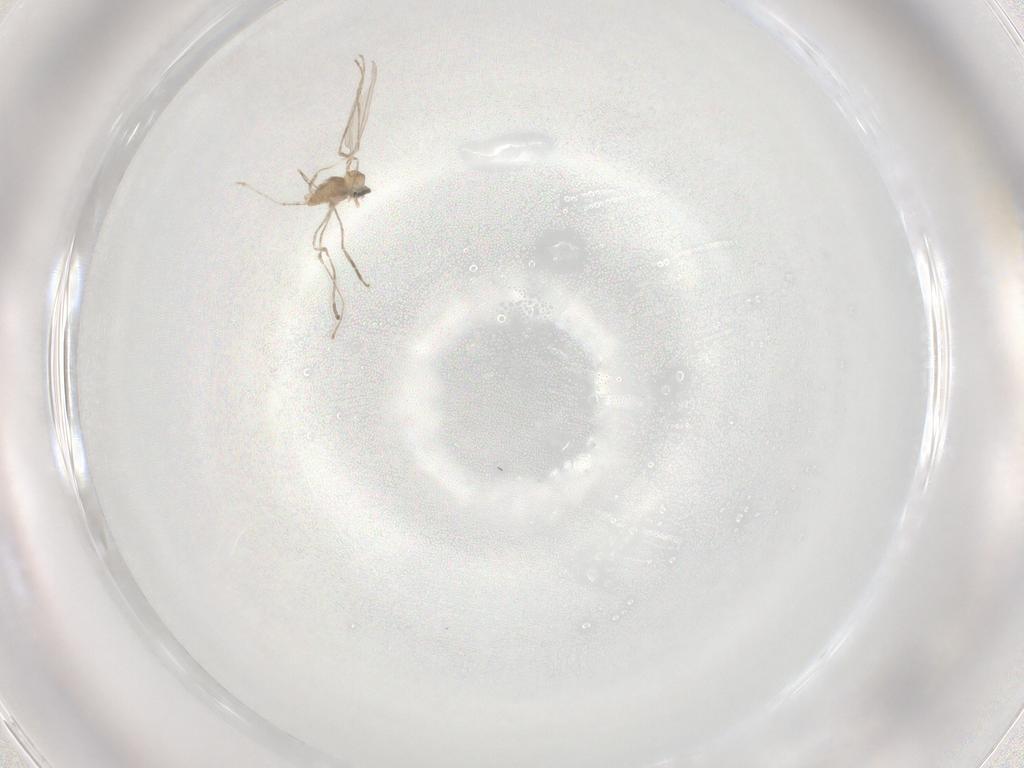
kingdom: Animalia
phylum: Arthropoda
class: Insecta
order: Diptera
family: Cecidomyiidae
